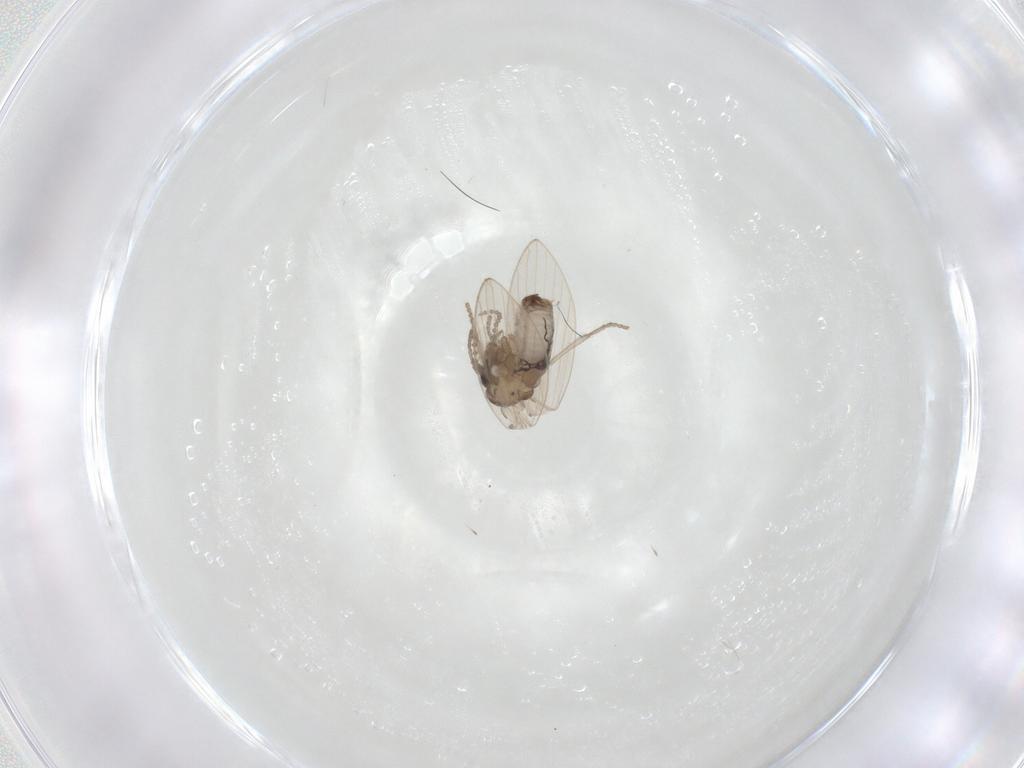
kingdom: Animalia
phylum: Arthropoda
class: Insecta
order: Diptera
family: Psychodidae
